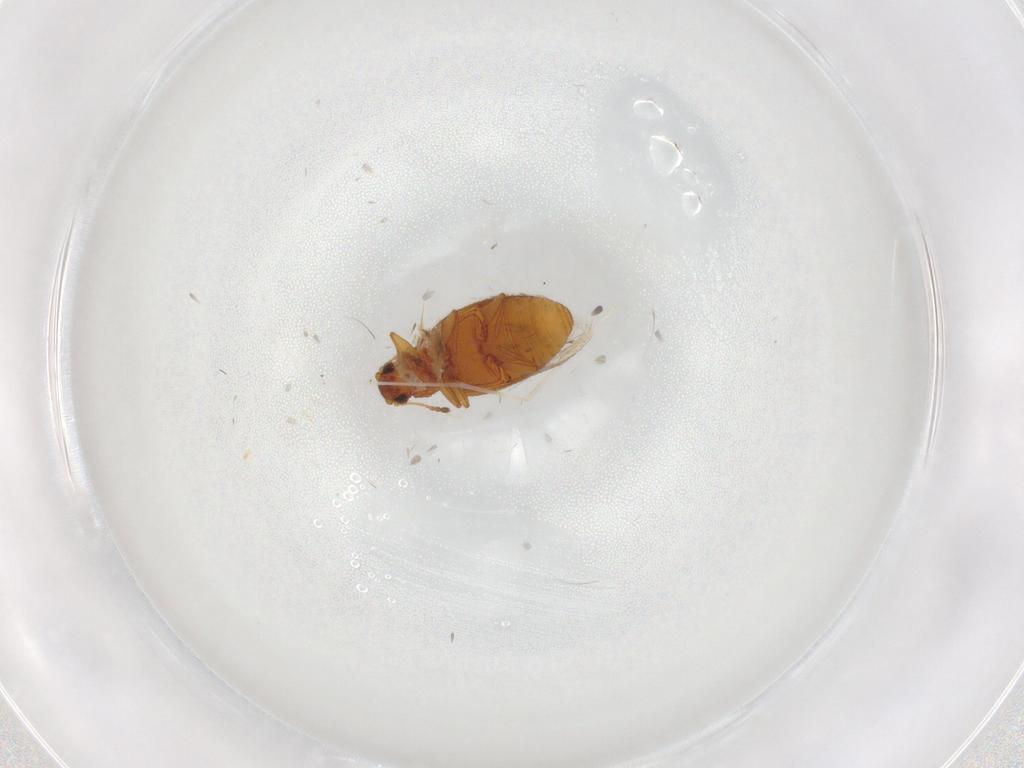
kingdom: Animalia
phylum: Arthropoda
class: Insecta
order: Coleoptera
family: Latridiidae
